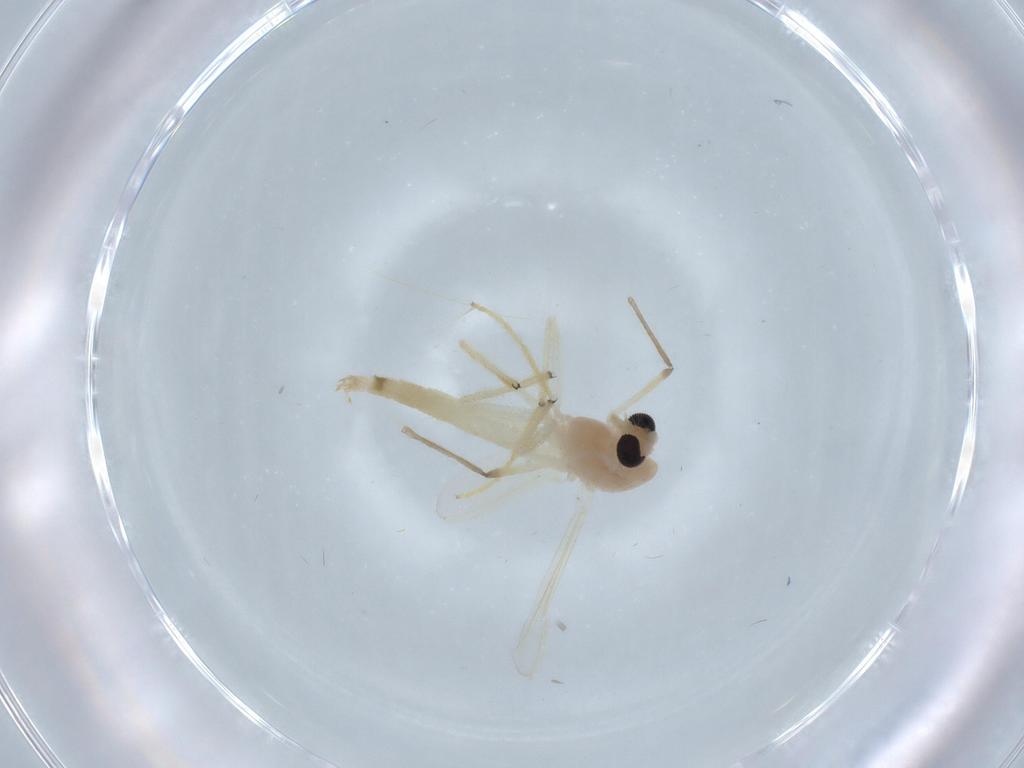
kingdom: Animalia
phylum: Arthropoda
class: Insecta
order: Diptera
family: Chironomidae
